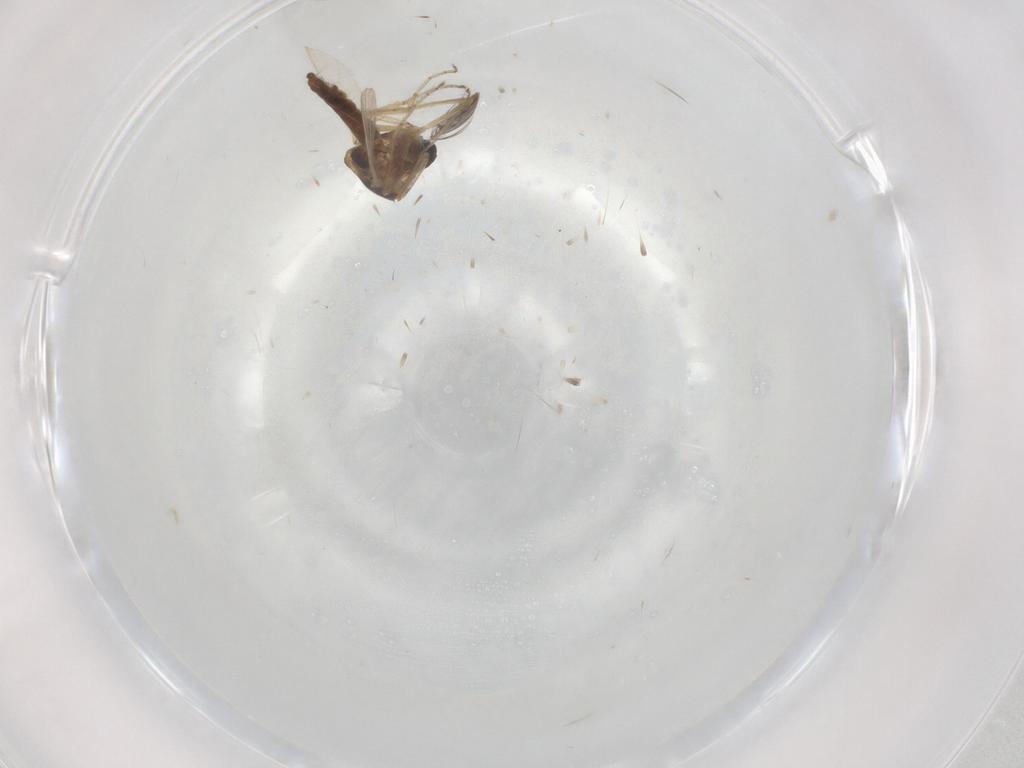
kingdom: Animalia
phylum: Arthropoda
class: Insecta
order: Diptera
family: Ceratopogonidae
